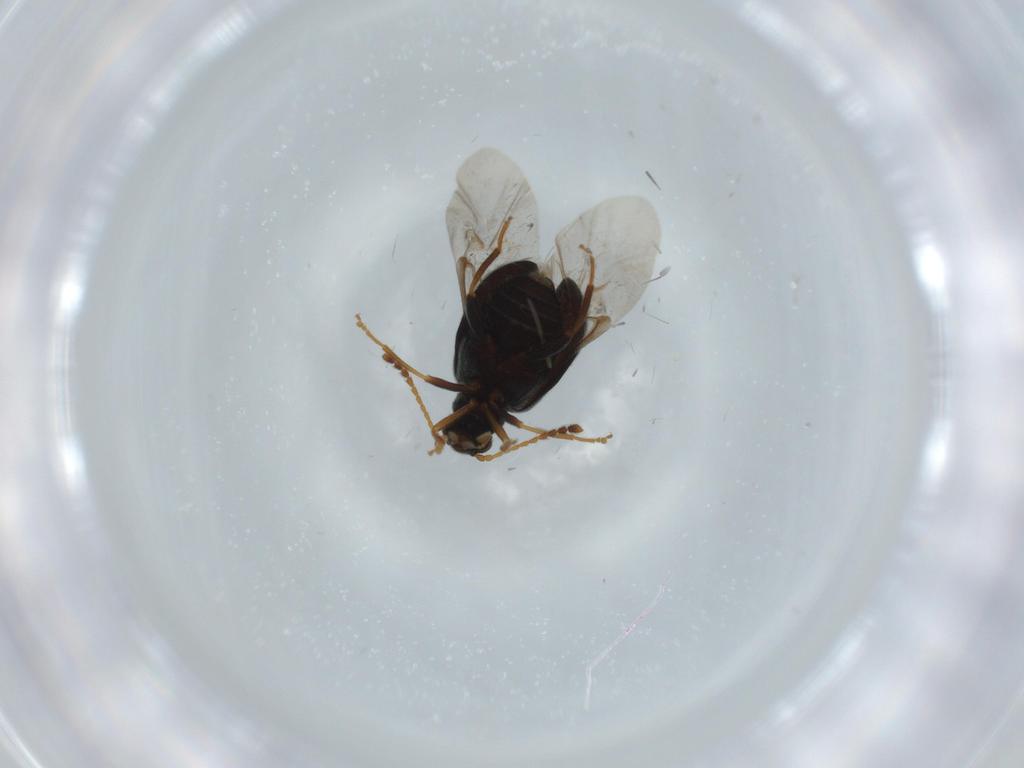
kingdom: Animalia
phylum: Arthropoda
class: Insecta
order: Coleoptera
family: Aderidae
